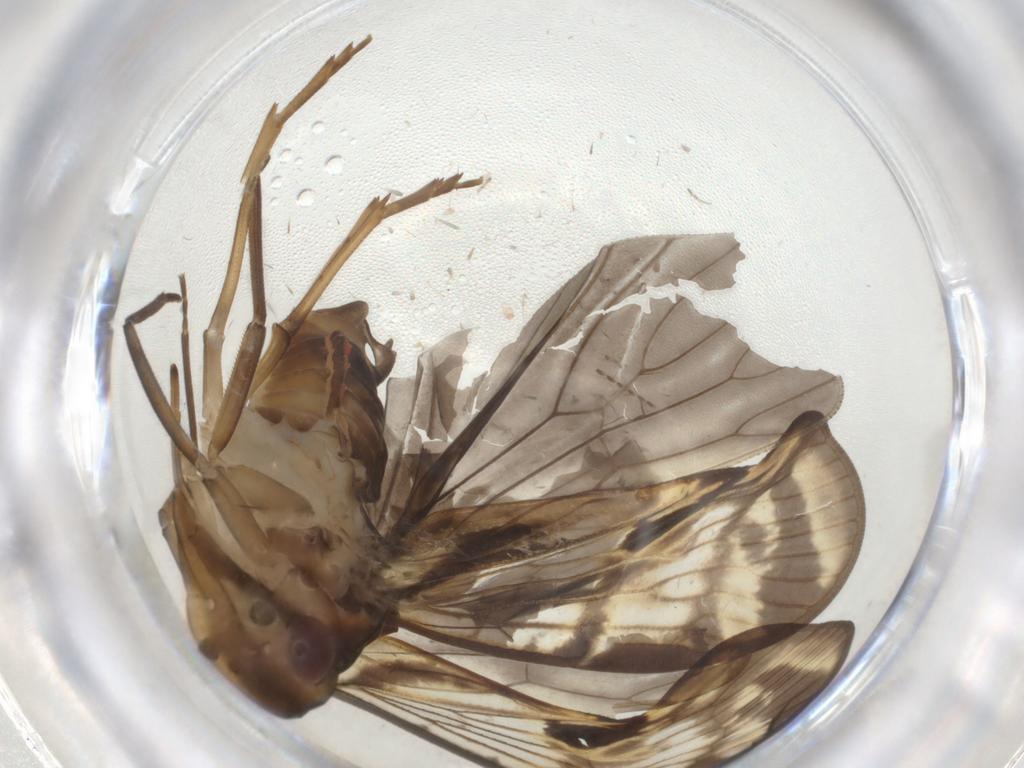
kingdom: Animalia
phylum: Arthropoda
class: Insecta
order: Hemiptera
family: Cixiidae
